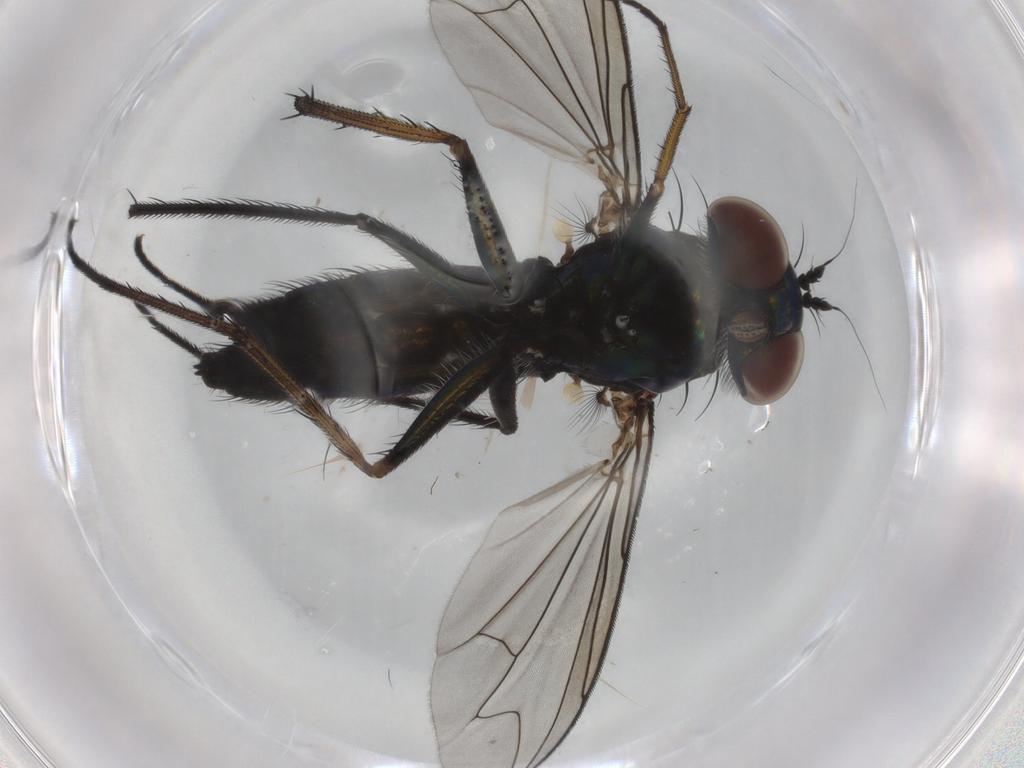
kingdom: Animalia
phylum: Arthropoda
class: Insecta
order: Diptera
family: Dolichopodidae
